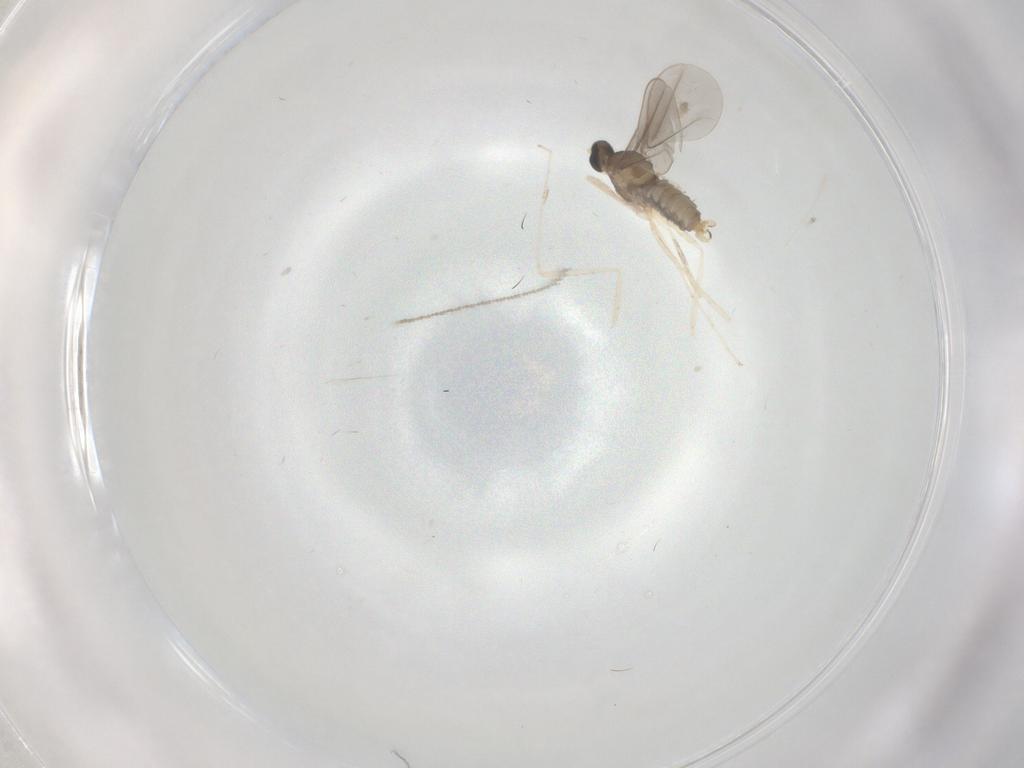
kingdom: Animalia
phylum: Arthropoda
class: Insecta
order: Diptera
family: Cecidomyiidae
